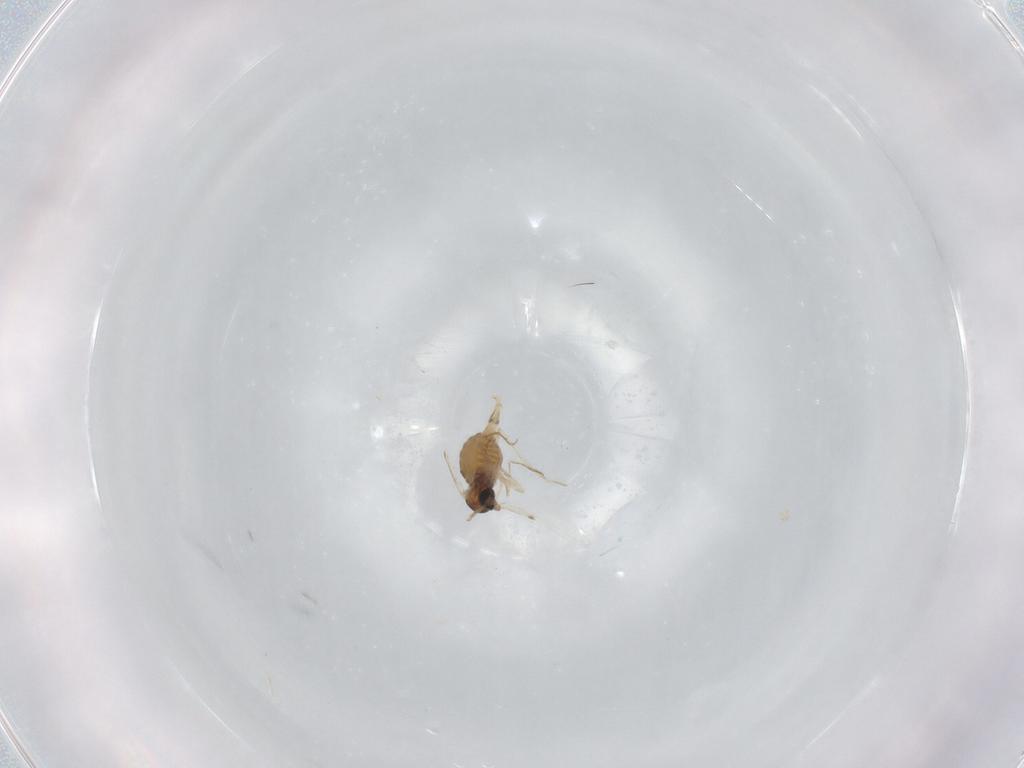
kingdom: Animalia
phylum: Arthropoda
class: Insecta
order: Diptera
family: Cecidomyiidae
